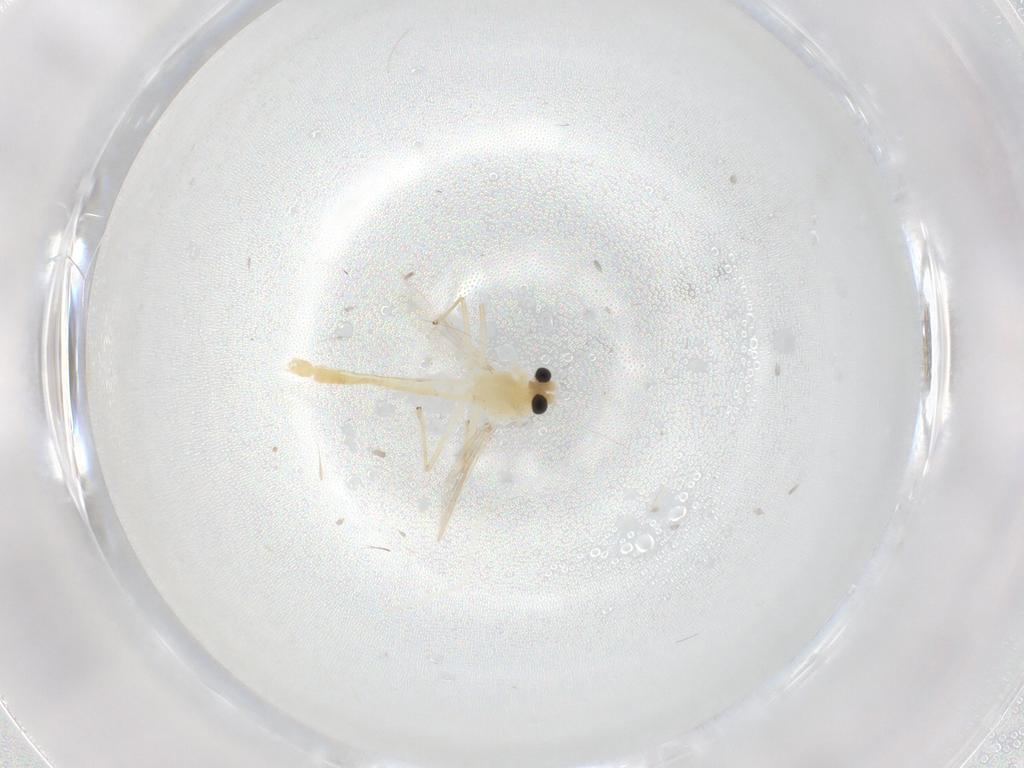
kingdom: Animalia
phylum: Arthropoda
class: Insecta
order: Diptera
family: Chironomidae
